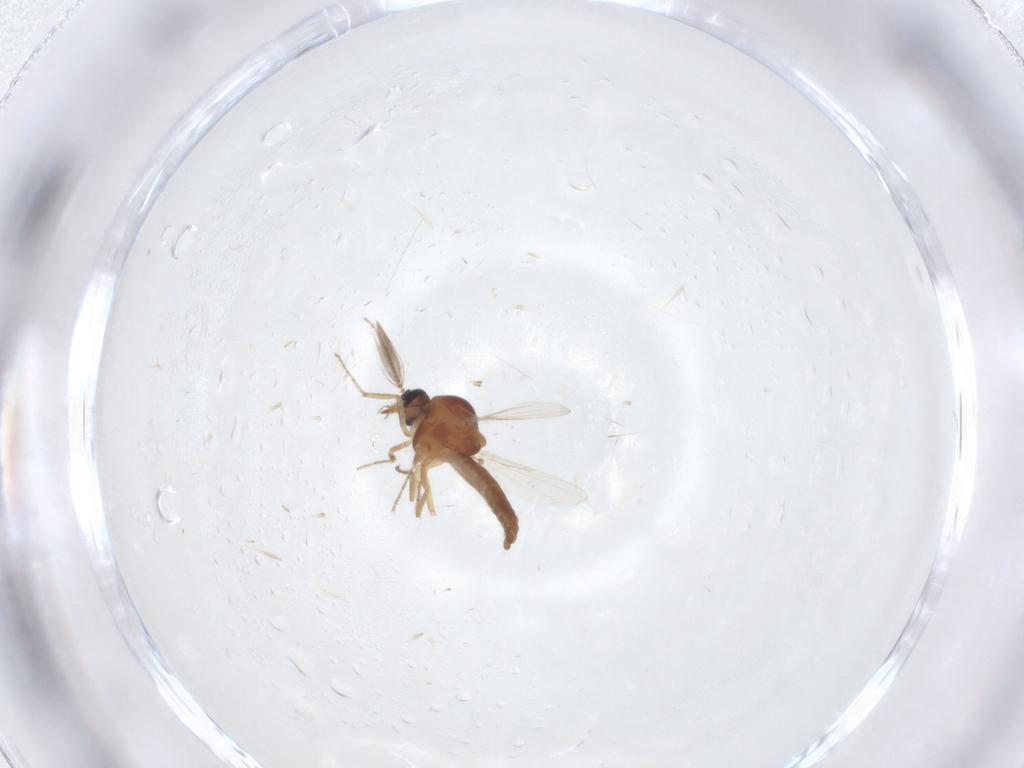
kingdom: Animalia
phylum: Arthropoda
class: Insecta
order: Diptera
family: Ceratopogonidae
